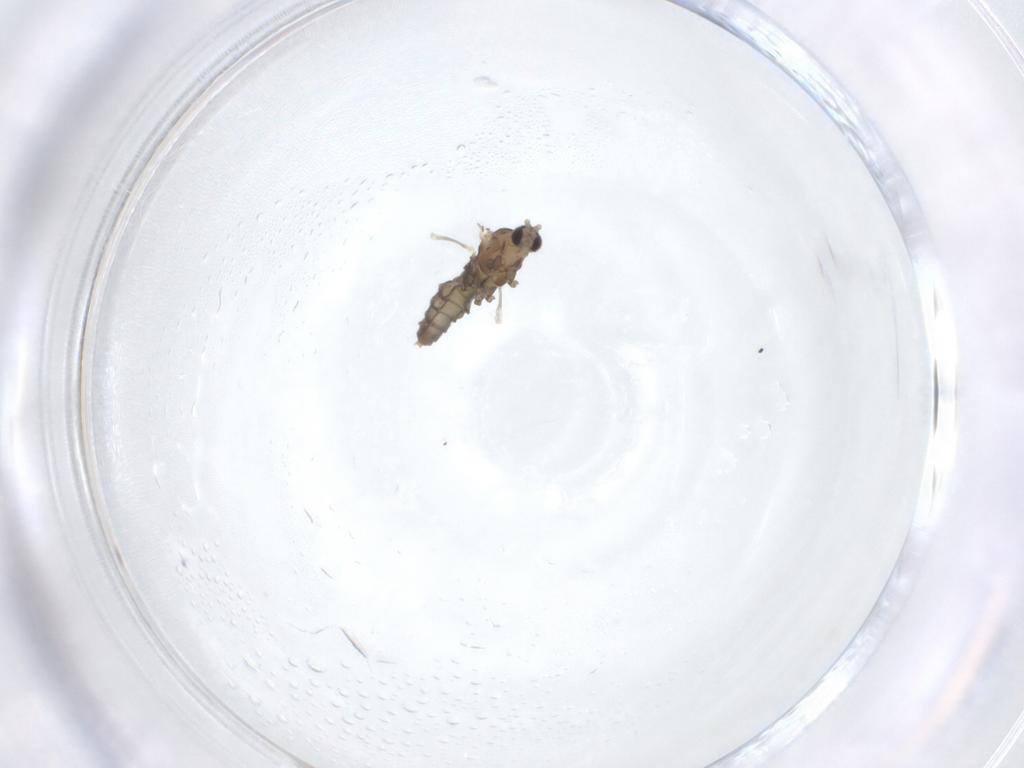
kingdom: Animalia
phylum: Arthropoda
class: Insecta
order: Diptera
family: Cecidomyiidae
